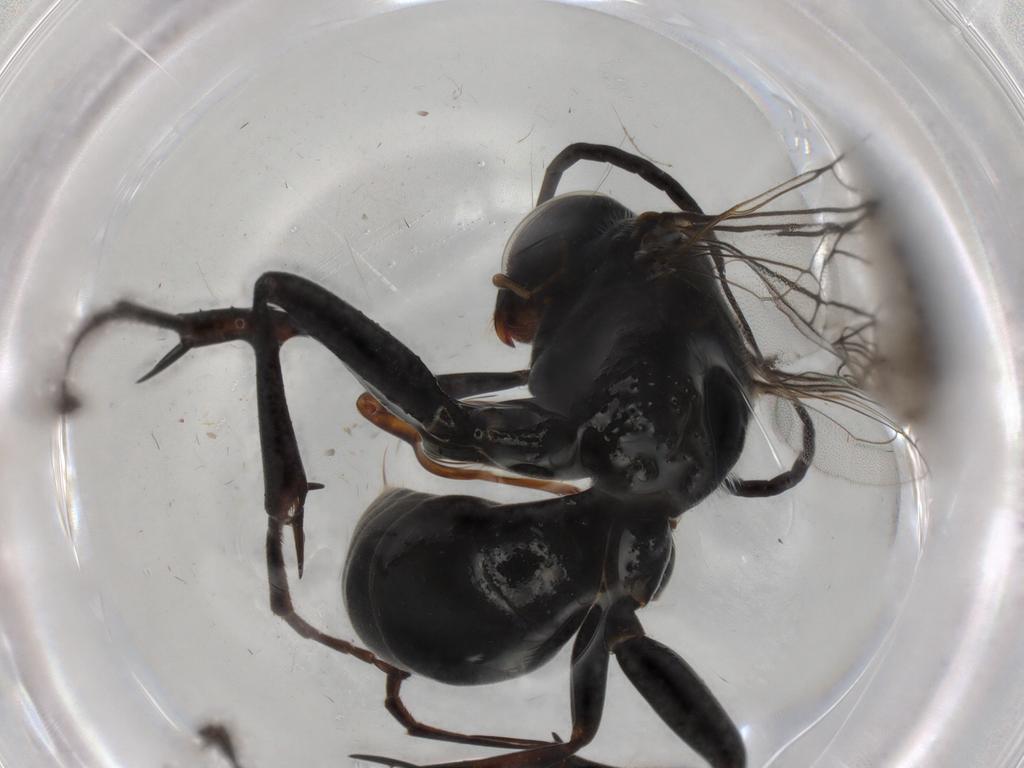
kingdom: Animalia
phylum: Arthropoda
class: Insecta
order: Hymenoptera
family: Pompilidae
